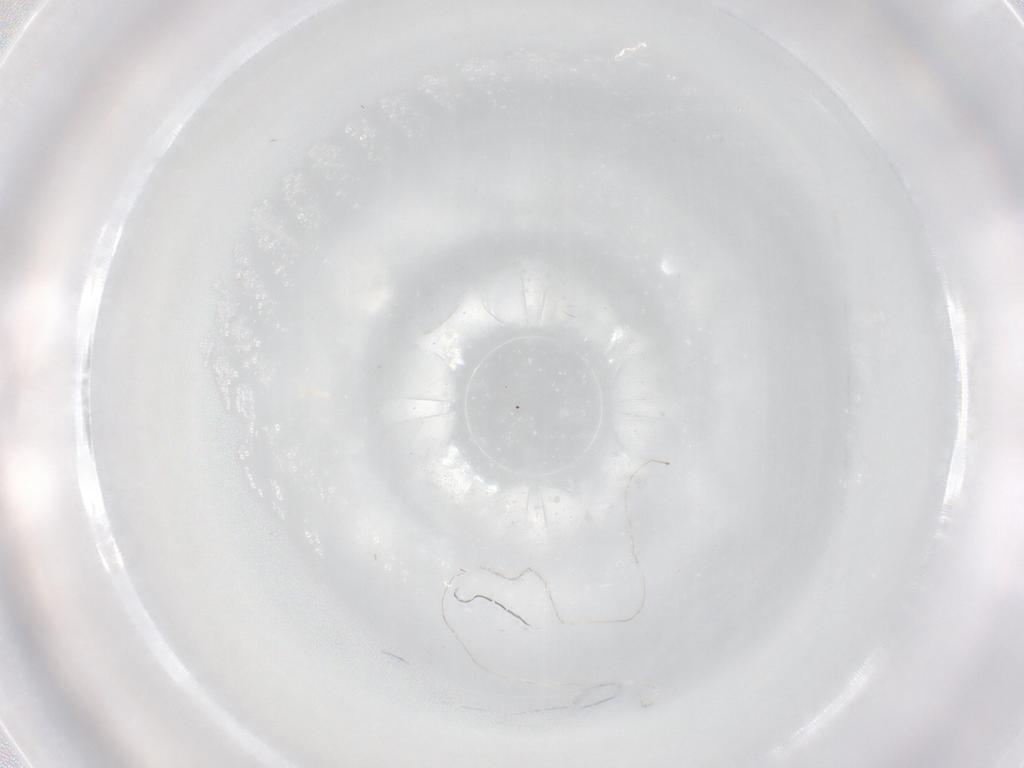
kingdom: Animalia
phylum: Arthropoda
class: Collembola
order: Entomobryomorpha
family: Entomobryidae
